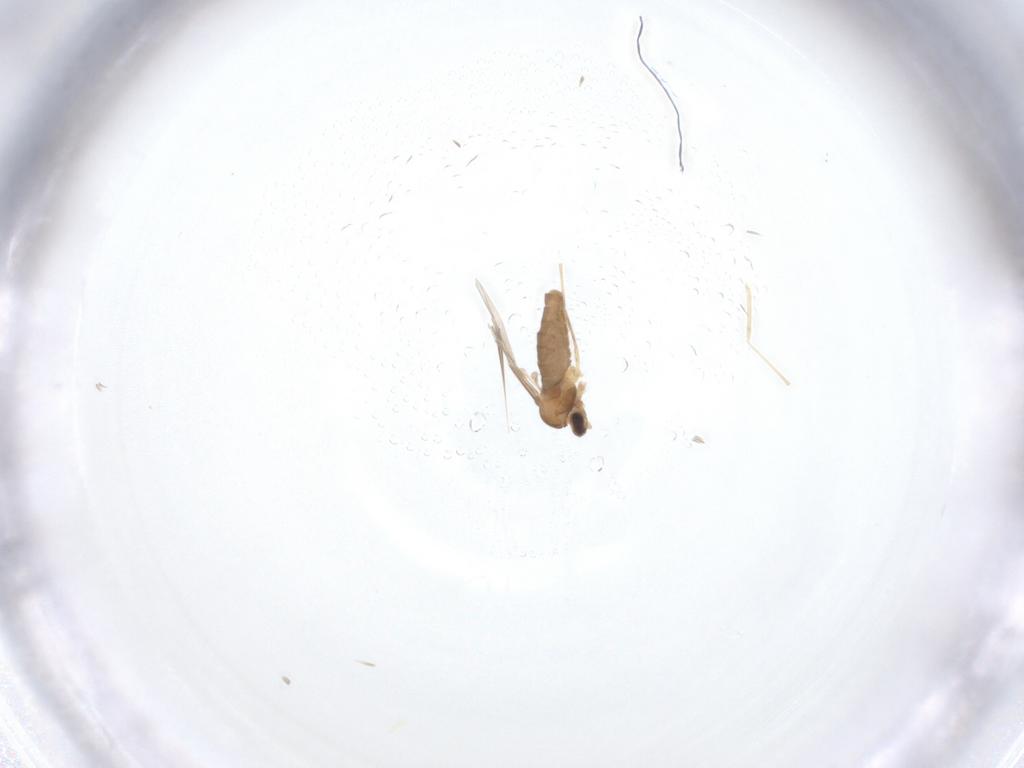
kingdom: Animalia
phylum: Arthropoda
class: Insecta
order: Diptera
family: Cecidomyiidae
